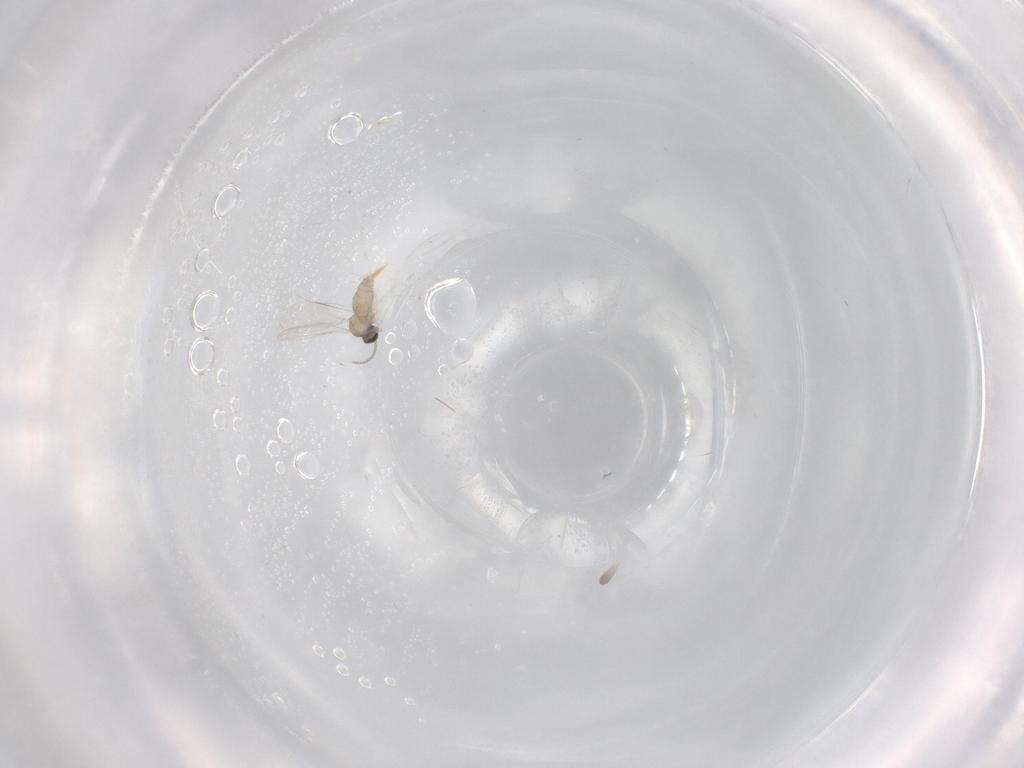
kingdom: Animalia
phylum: Arthropoda
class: Insecta
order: Diptera
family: Cecidomyiidae
